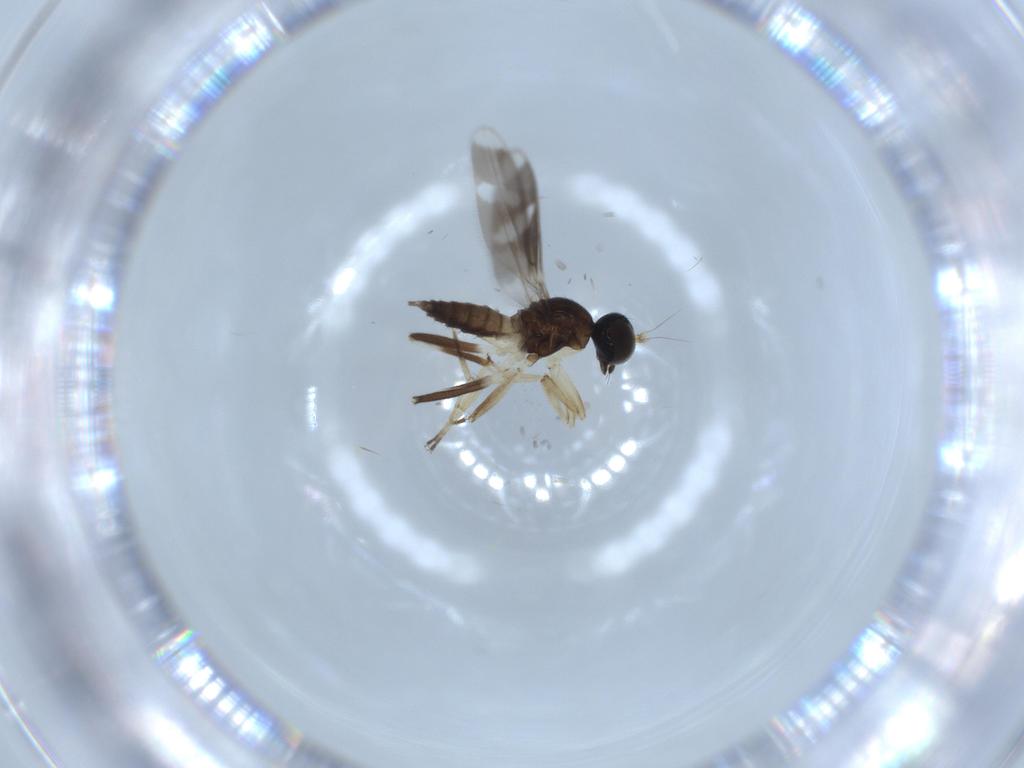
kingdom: Animalia
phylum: Arthropoda
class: Insecta
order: Diptera
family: Hybotidae
